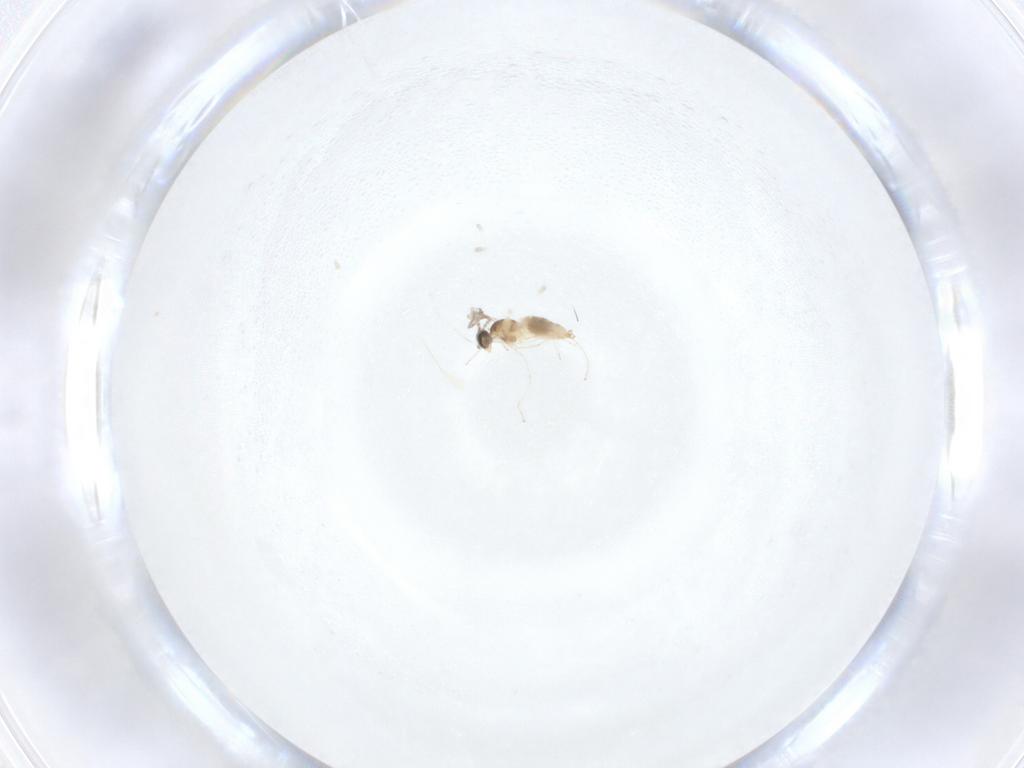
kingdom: Animalia
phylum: Arthropoda
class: Insecta
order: Diptera
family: Cecidomyiidae
